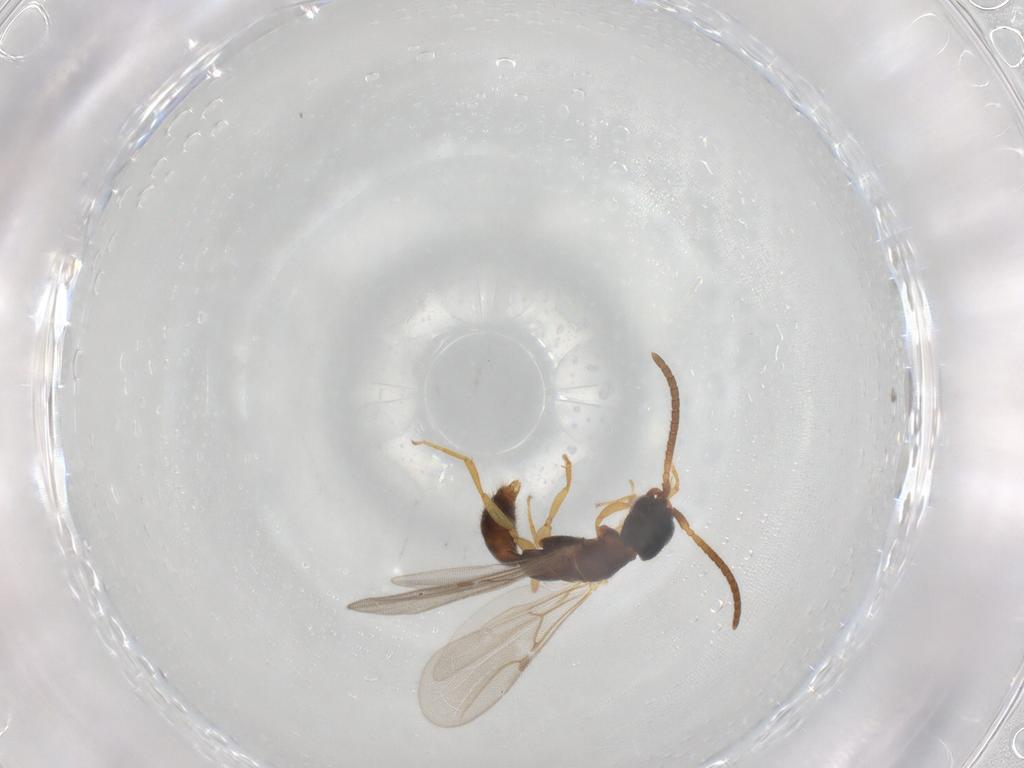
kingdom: Animalia
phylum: Arthropoda
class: Insecta
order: Hymenoptera
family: Bethylidae
